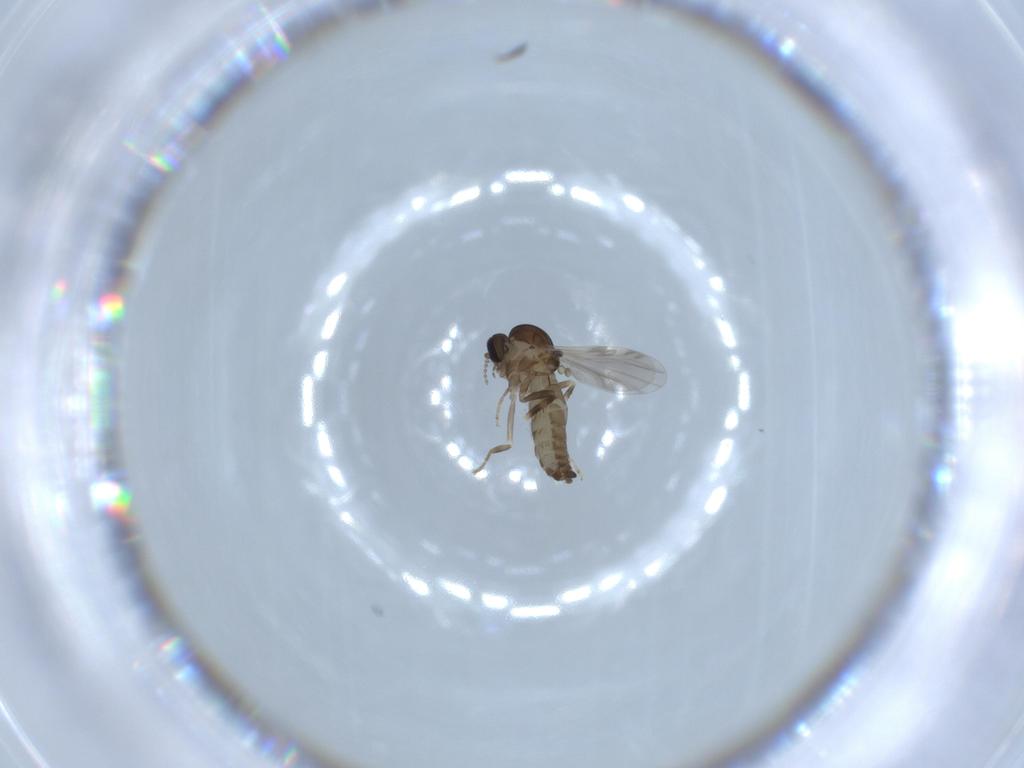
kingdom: Animalia
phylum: Arthropoda
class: Insecta
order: Diptera
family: Ceratopogonidae
